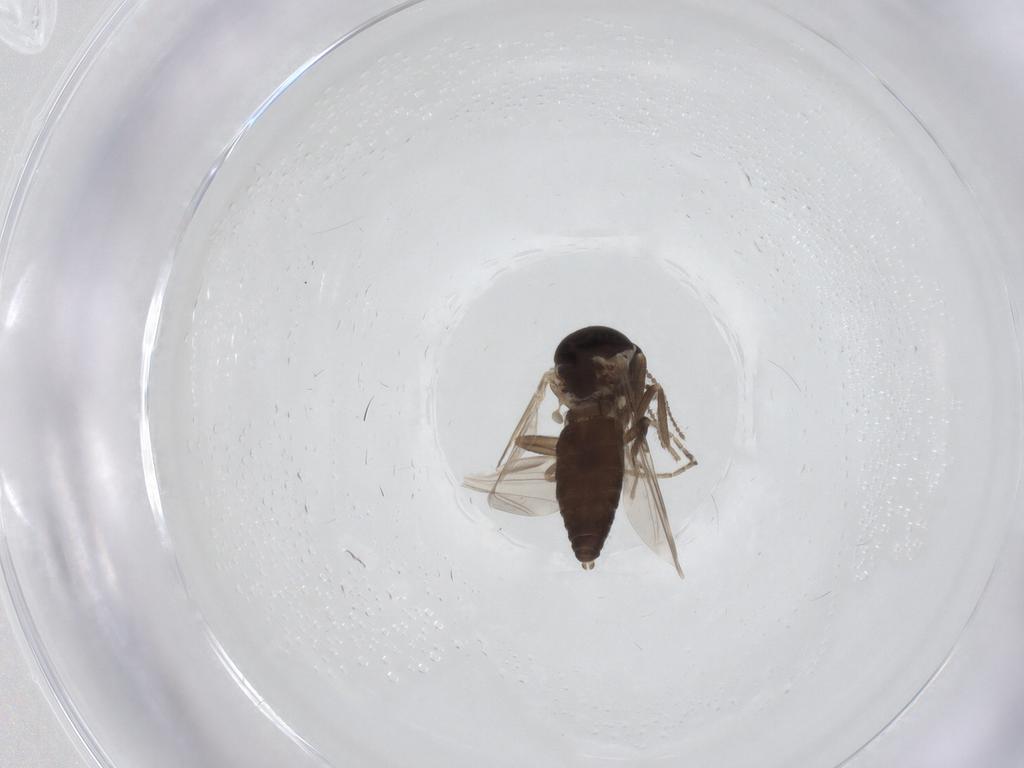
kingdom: Animalia
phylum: Arthropoda
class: Insecta
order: Diptera
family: Ceratopogonidae
